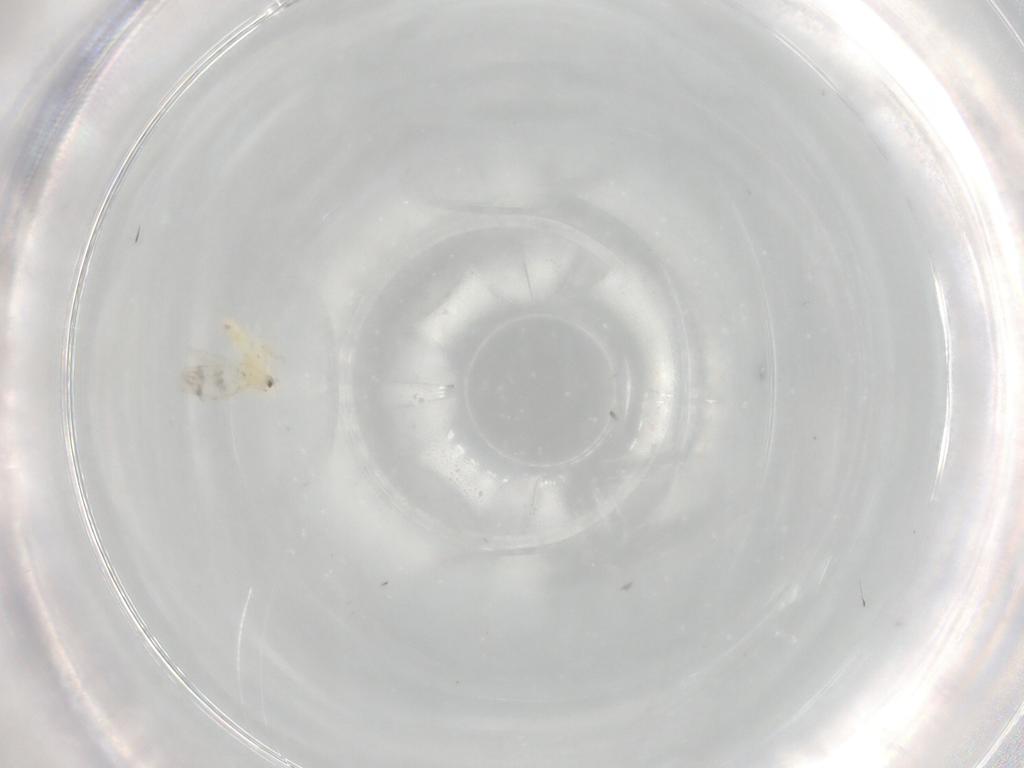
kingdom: Animalia
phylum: Arthropoda
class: Insecta
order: Hemiptera
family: Aleyrodidae
